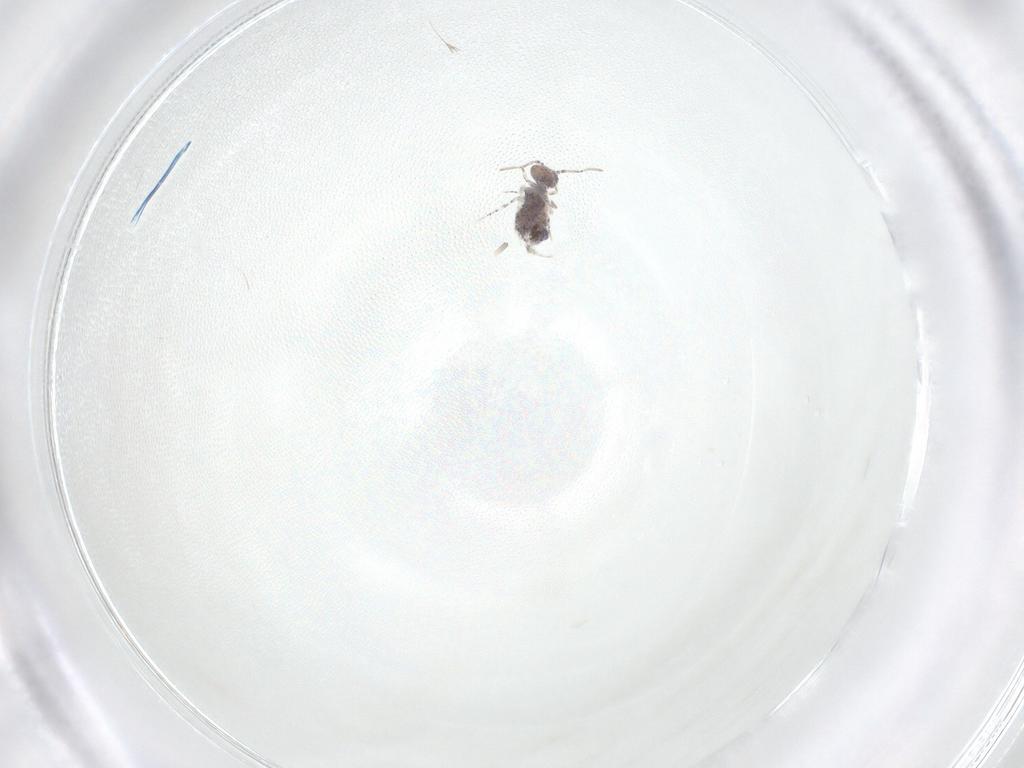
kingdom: Animalia
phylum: Arthropoda
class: Collembola
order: Symphypleona
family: Bourletiellidae
